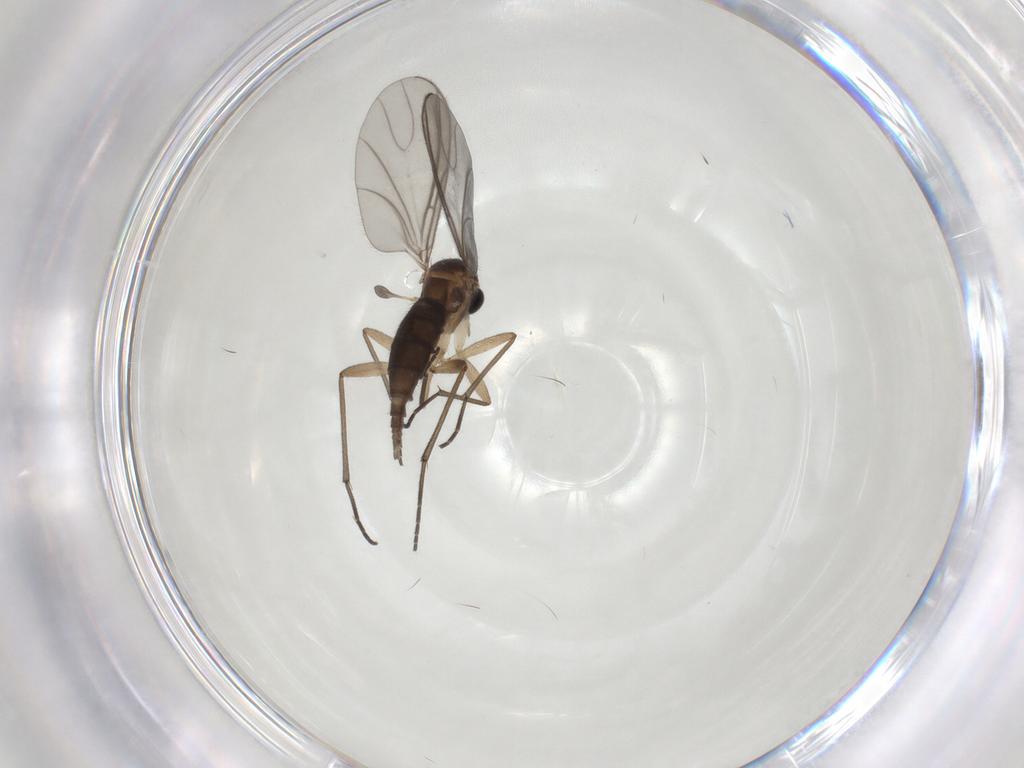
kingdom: Animalia
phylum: Arthropoda
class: Insecta
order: Diptera
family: Sciaridae
